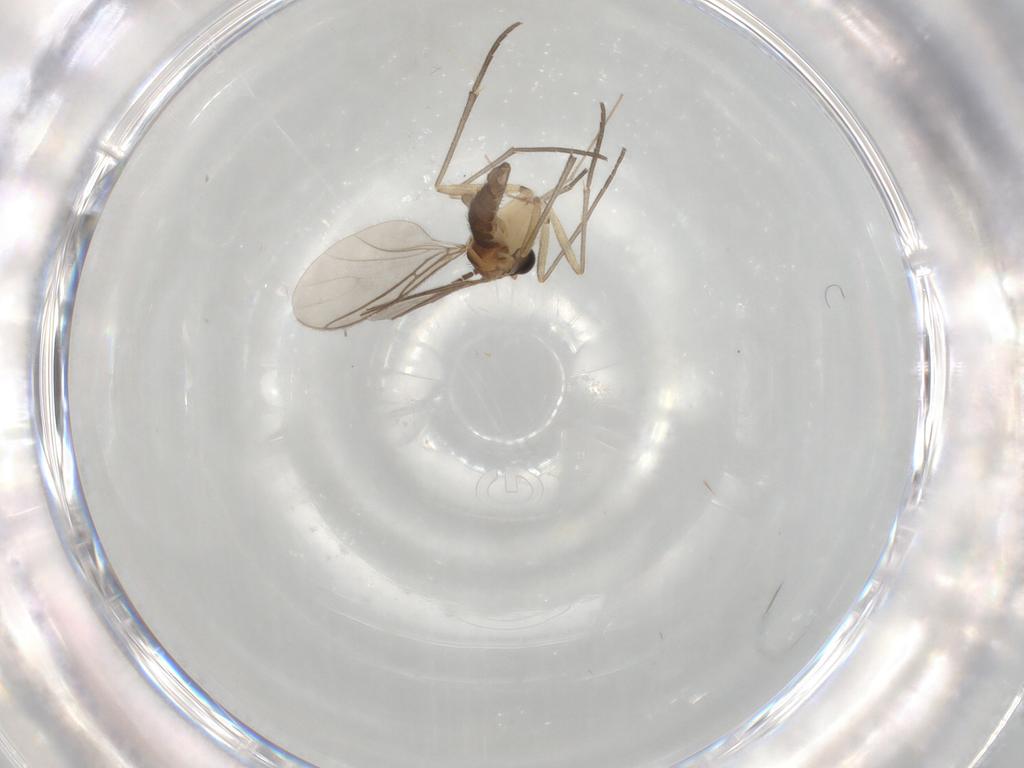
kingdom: Animalia
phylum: Arthropoda
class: Insecta
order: Diptera
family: Sciaridae
